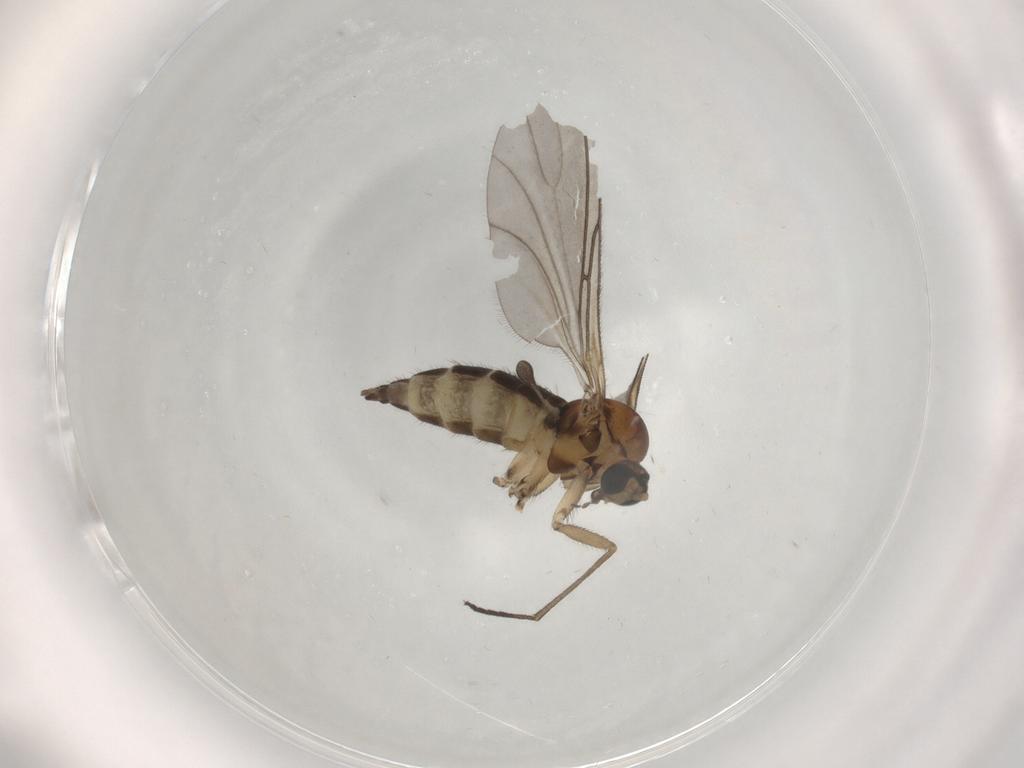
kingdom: Animalia
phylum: Arthropoda
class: Insecta
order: Diptera
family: Sciaridae
